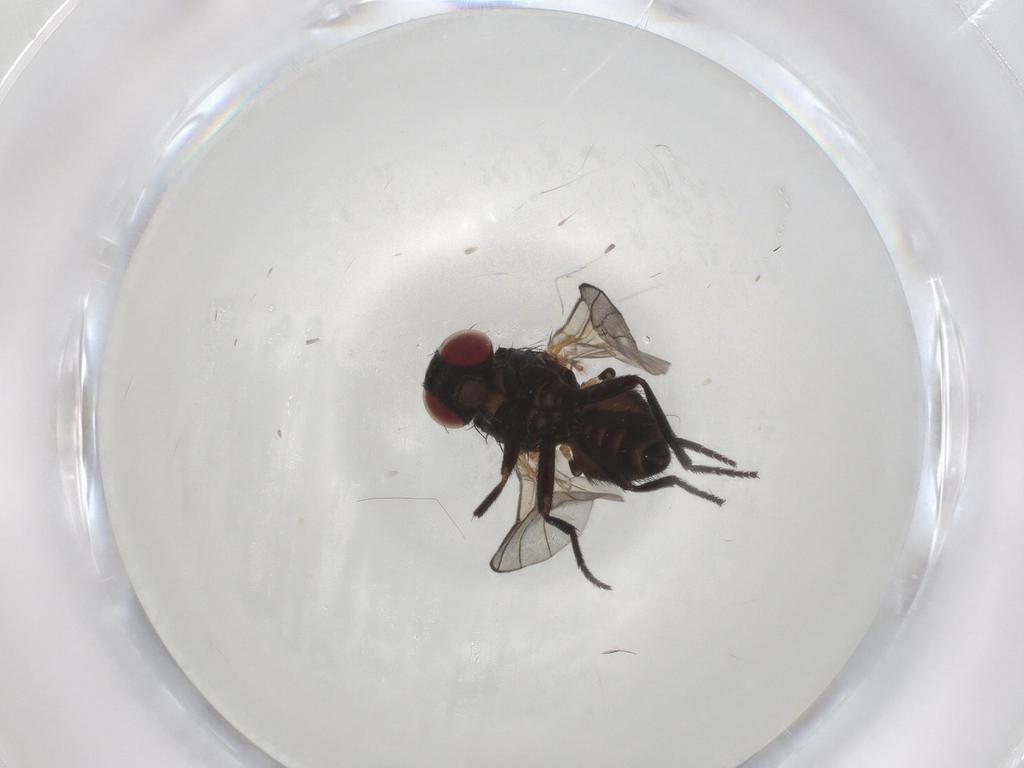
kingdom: Animalia
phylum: Arthropoda
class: Insecta
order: Diptera
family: Agromyzidae
